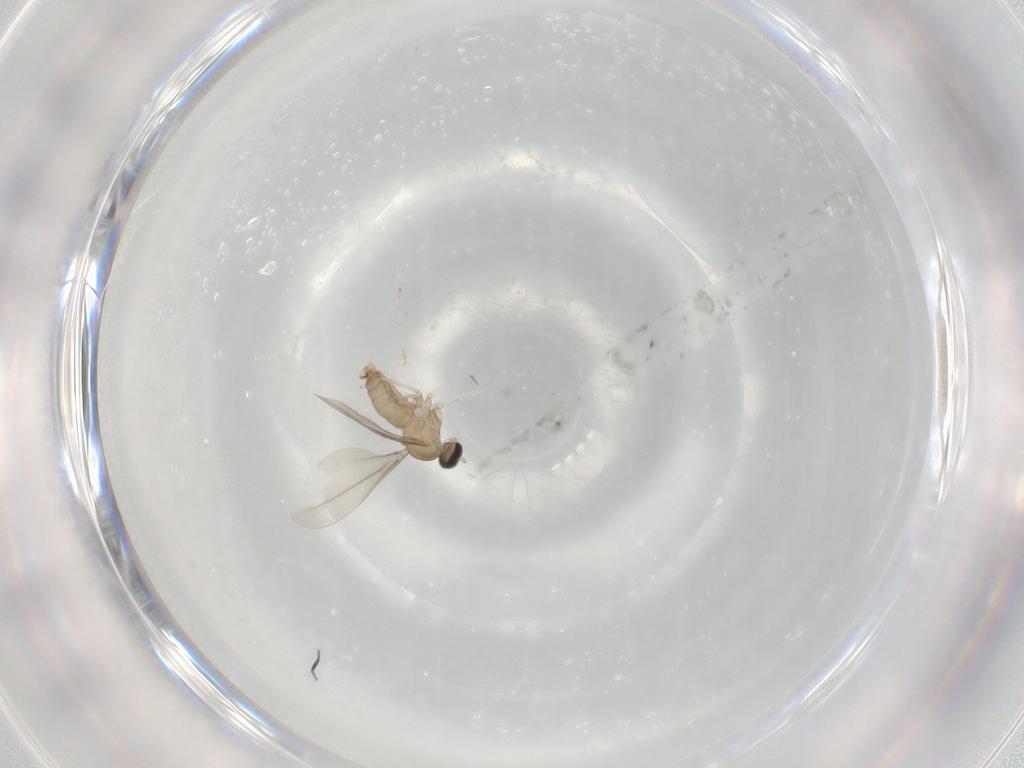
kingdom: Animalia
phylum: Arthropoda
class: Insecta
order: Diptera
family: Cecidomyiidae
